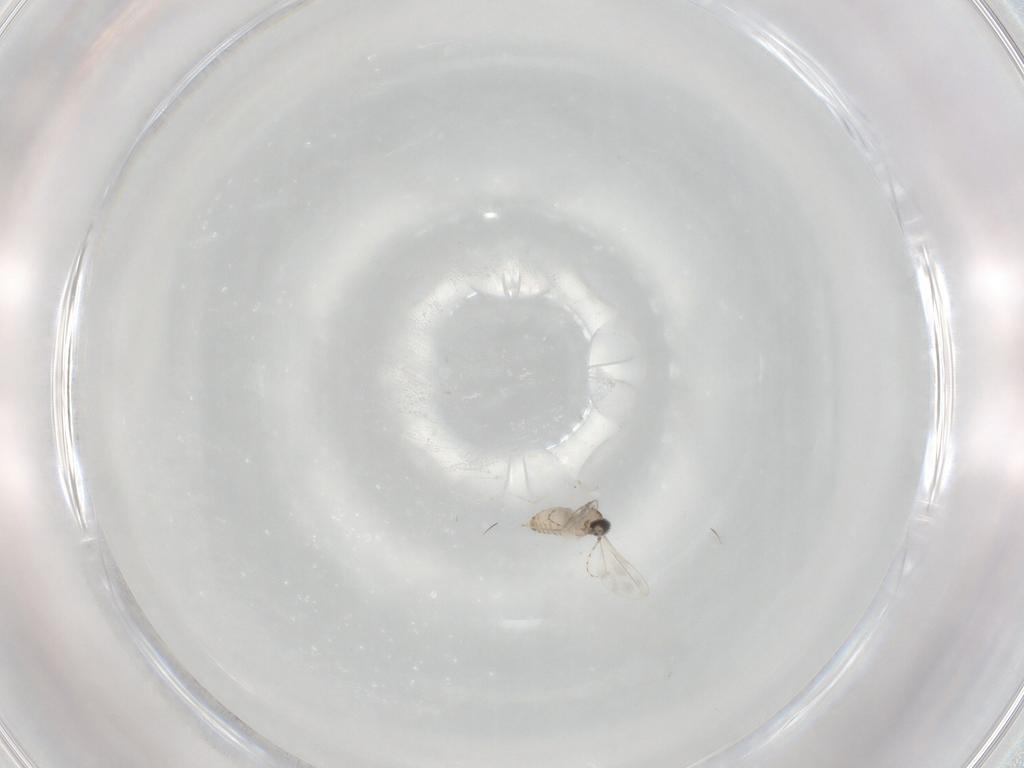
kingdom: Animalia
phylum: Arthropoda
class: Insecta
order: Diptera
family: Cecidomyiidae
